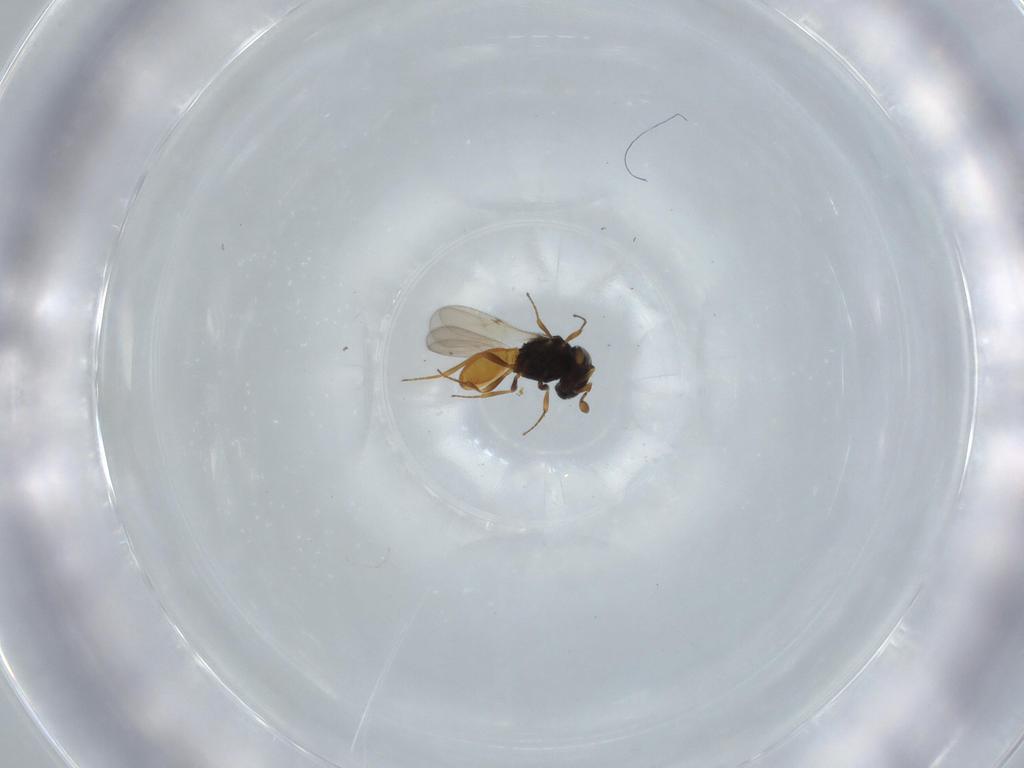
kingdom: Animalia
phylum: Arthropoda
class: Insecta
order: Hymenoptera
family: Scelionidae
